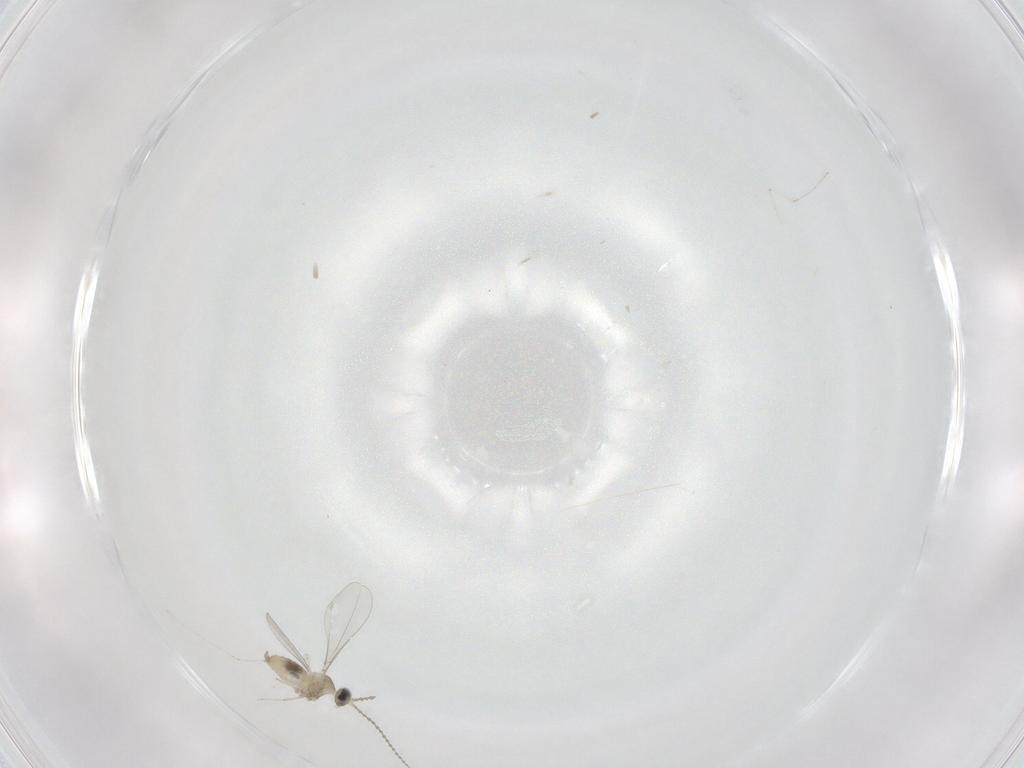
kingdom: Animalia
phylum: Arthropoda
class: Insecta
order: Diptera
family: Cecidomyiidae
